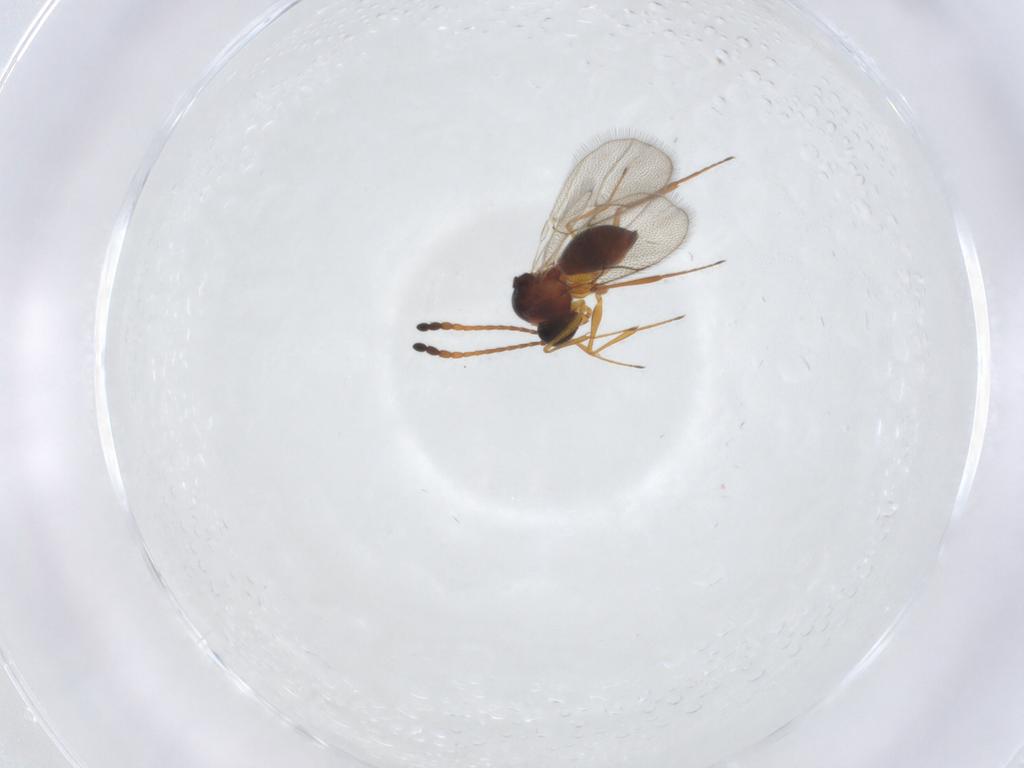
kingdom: Animalia
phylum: Arthropoda
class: Insecta
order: Hymenoptera
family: Figitidae
